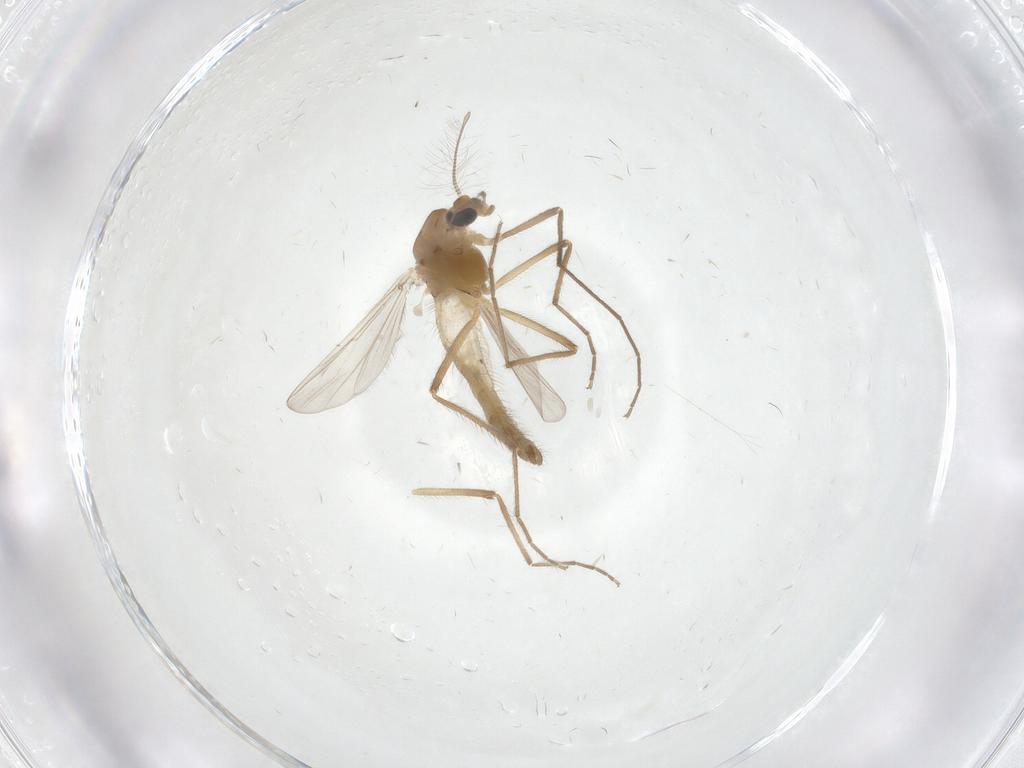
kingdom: Animalia
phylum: Arthropoda
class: Insecta
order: Diptera
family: Chironomidae
